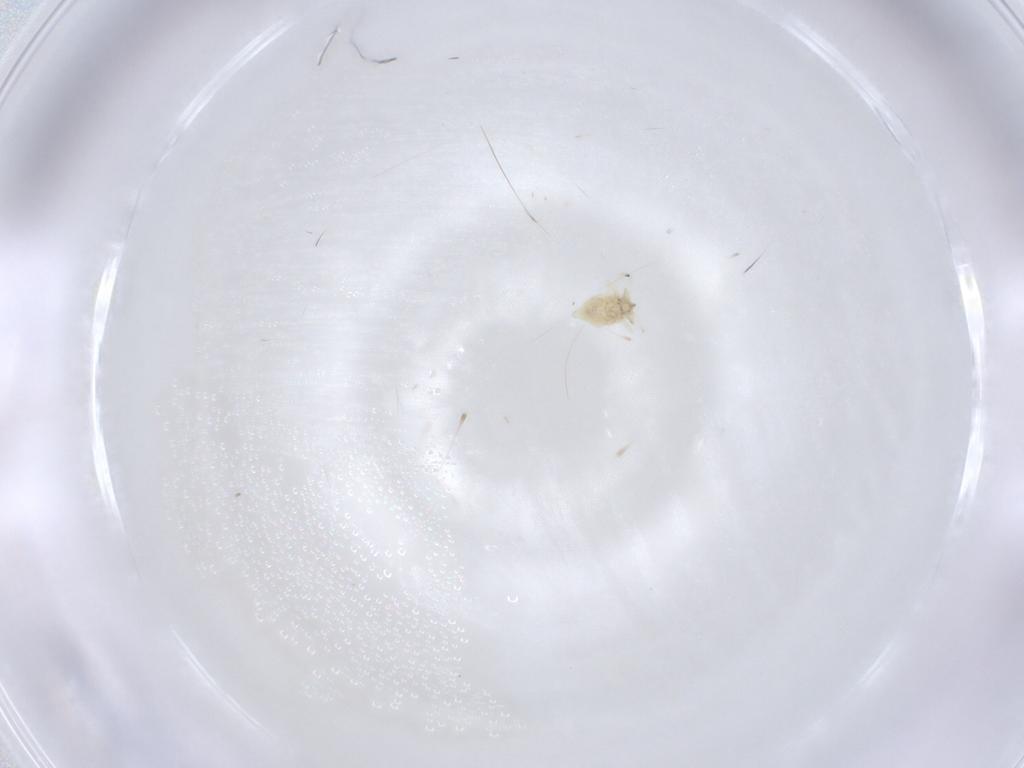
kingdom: Animalia
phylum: Arthropoda
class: Insecta
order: Neuroptera
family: Coniopterygidae
